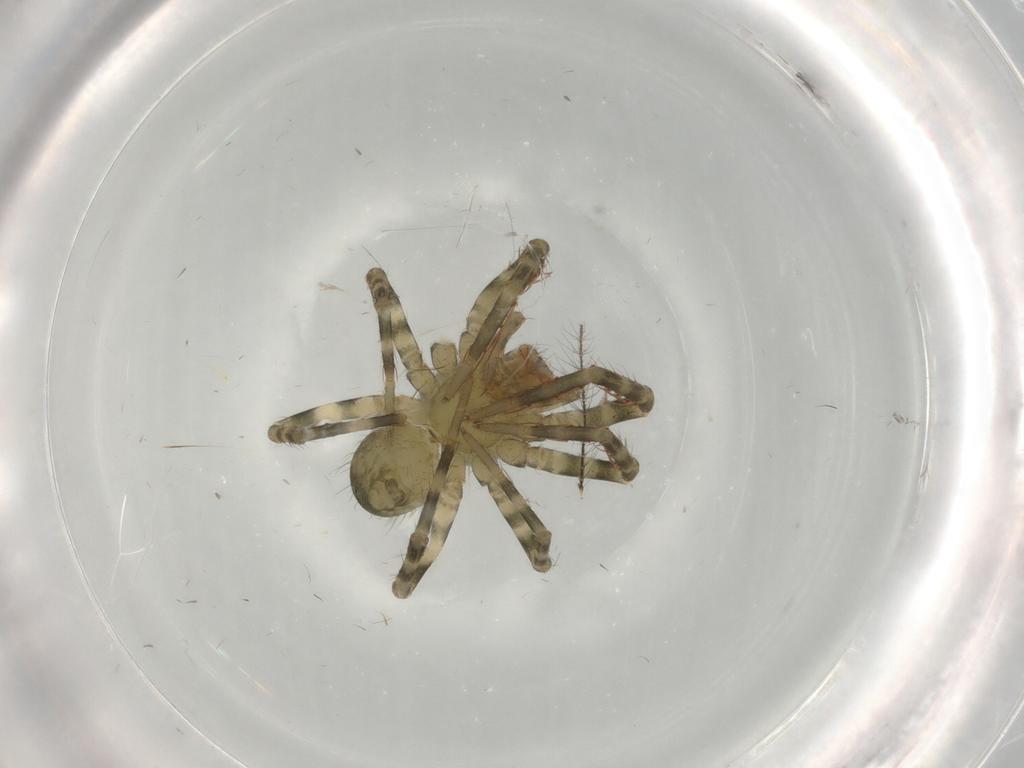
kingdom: Animalia
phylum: Arthropoda
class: Arachnida
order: Araneae
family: Ctenidae
